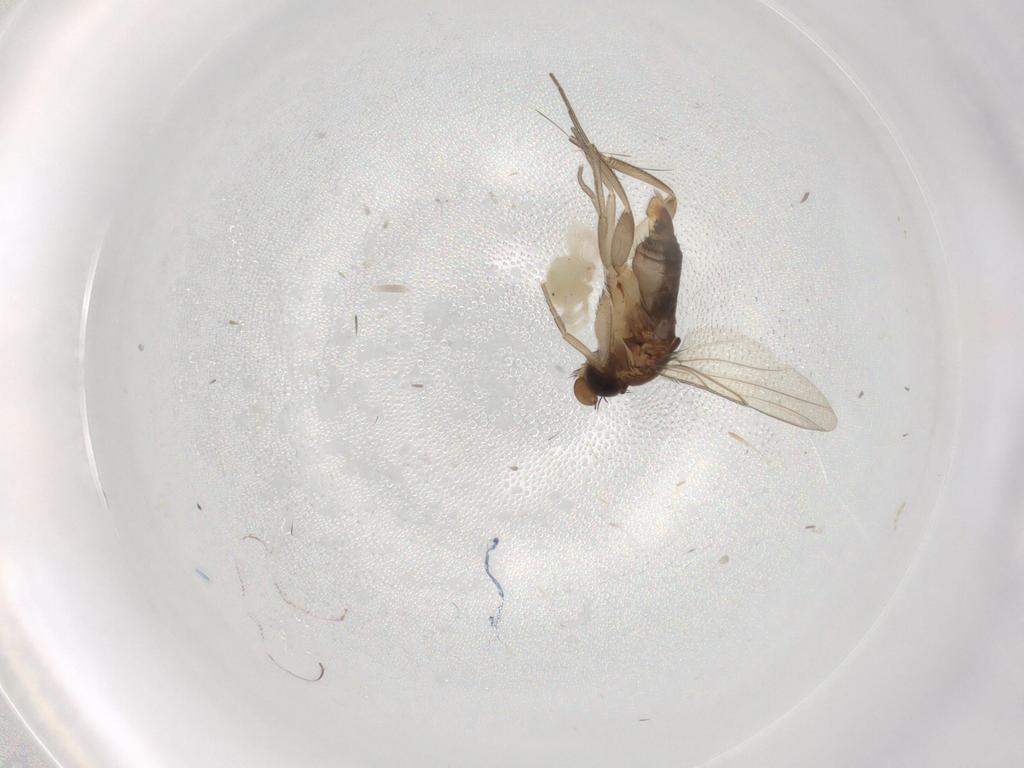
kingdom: Animalia
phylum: Arthropoda
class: Insecta
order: Diptera
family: Phoridae
